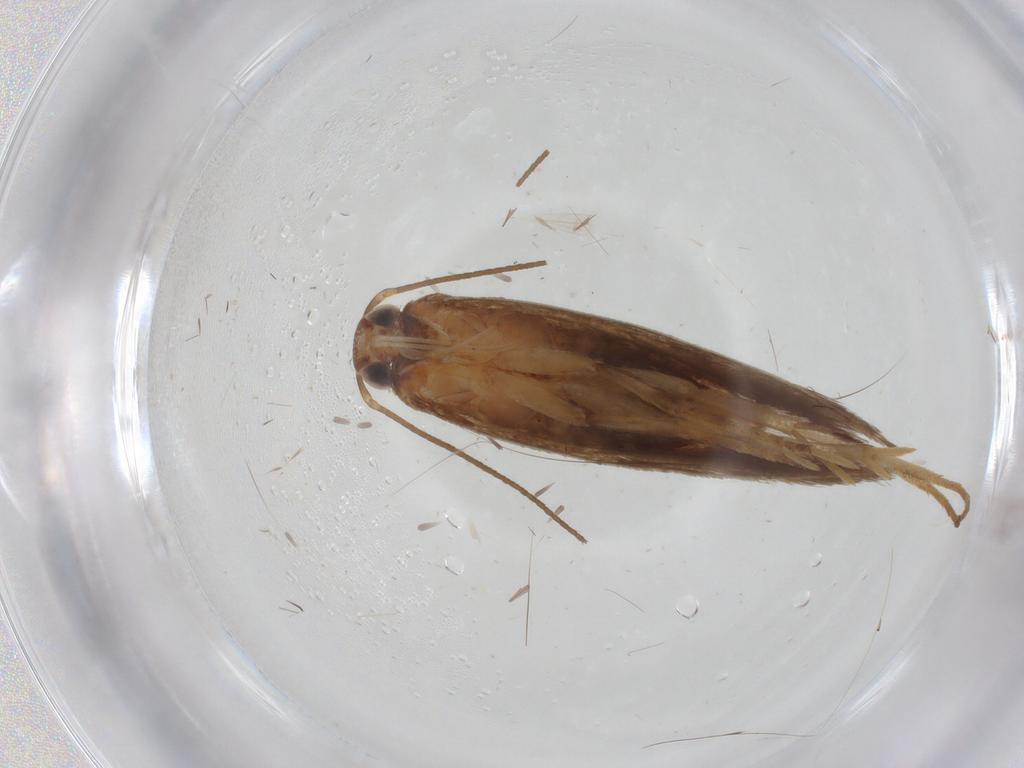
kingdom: Animalia
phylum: Arthropoda
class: Insecta
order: Lepidoptera
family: Gelechiidae
